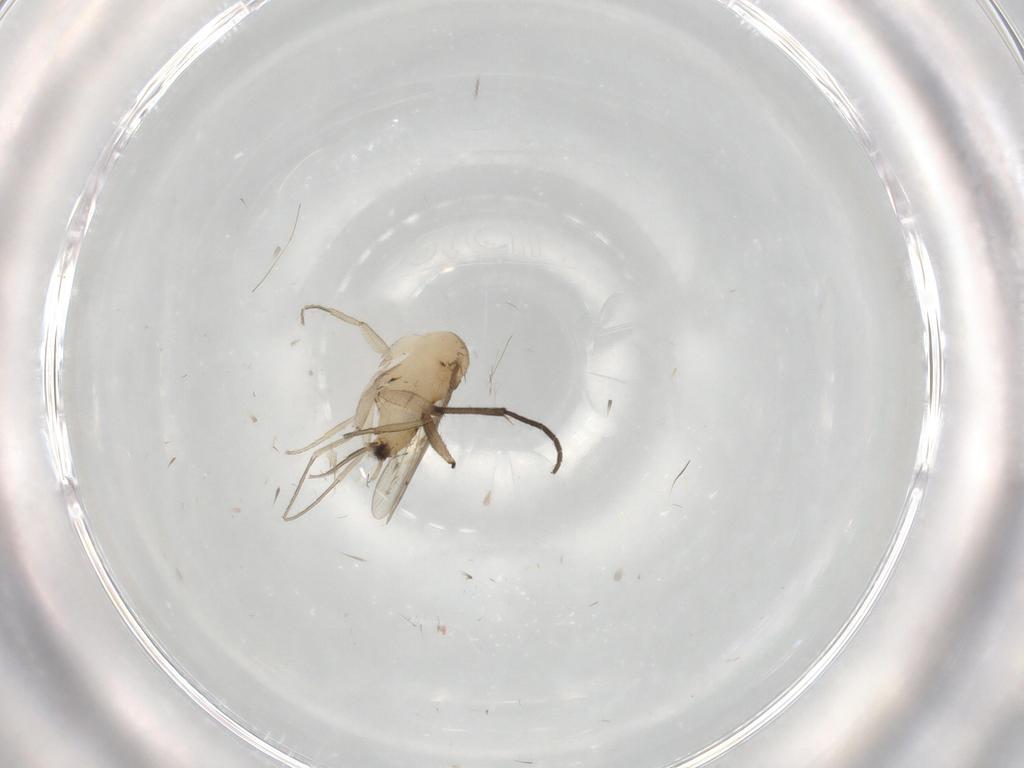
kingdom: Animalia
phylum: Arthropoda
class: Insecta
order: Diptera
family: Phoridae
